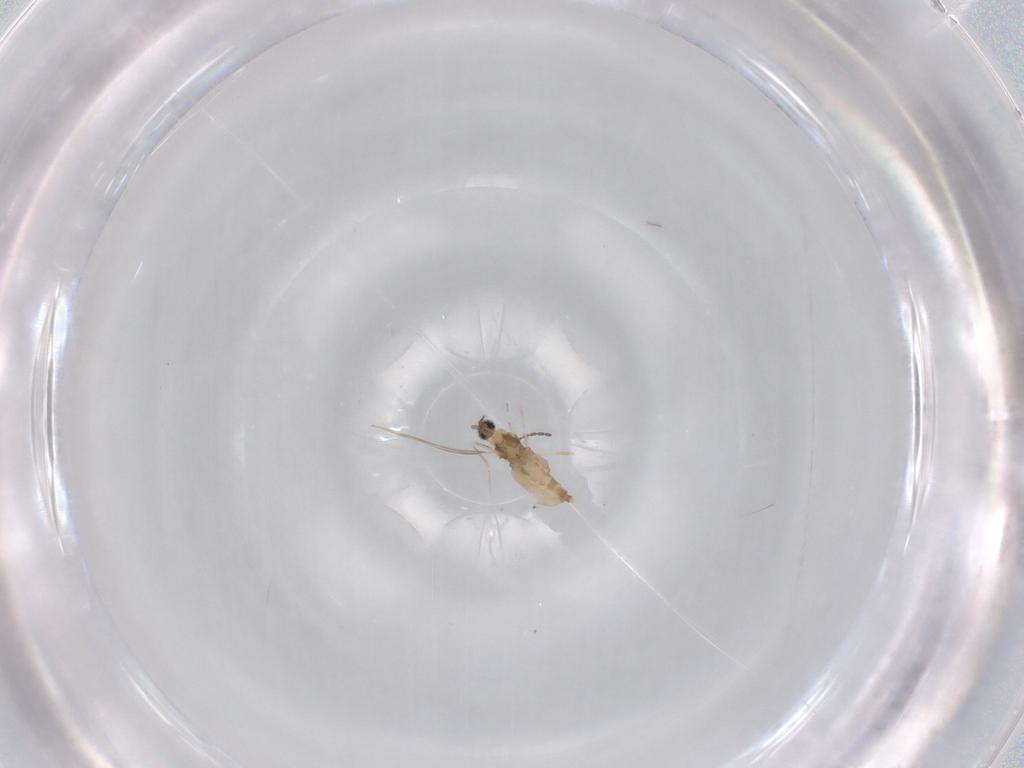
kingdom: Animalia
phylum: Arthropoda
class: Insecta
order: Diptera
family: Cecidomyiidae
